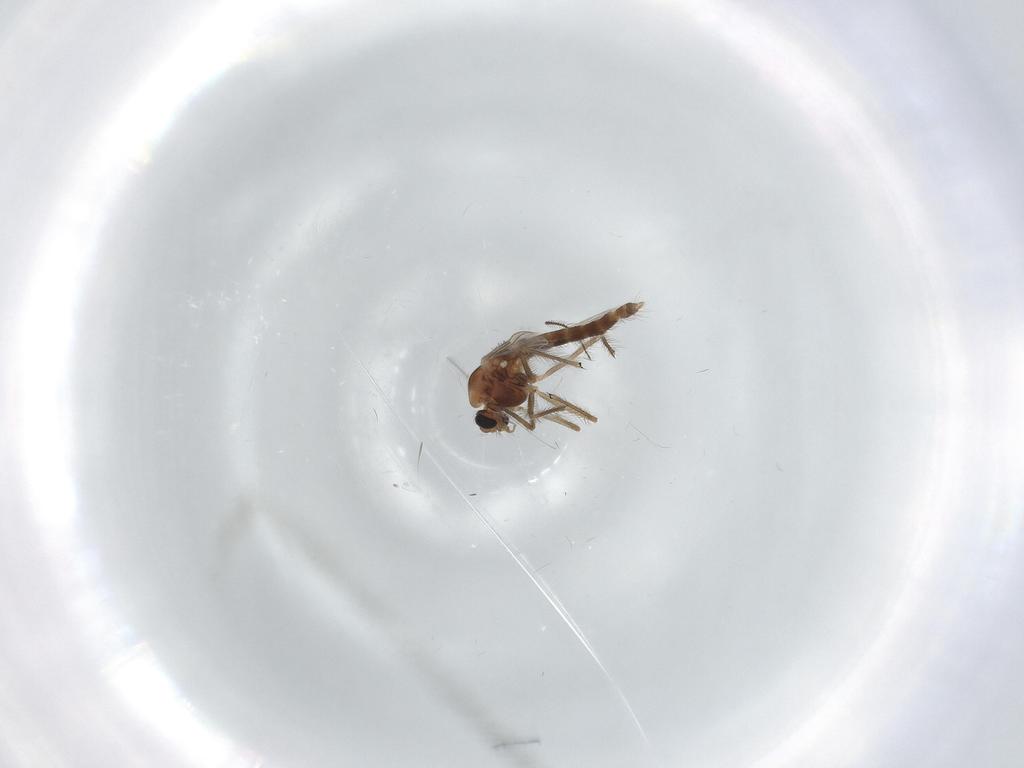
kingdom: Animalia
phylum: Arthropoda
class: Insecta
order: Diptera
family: Chironomidae
